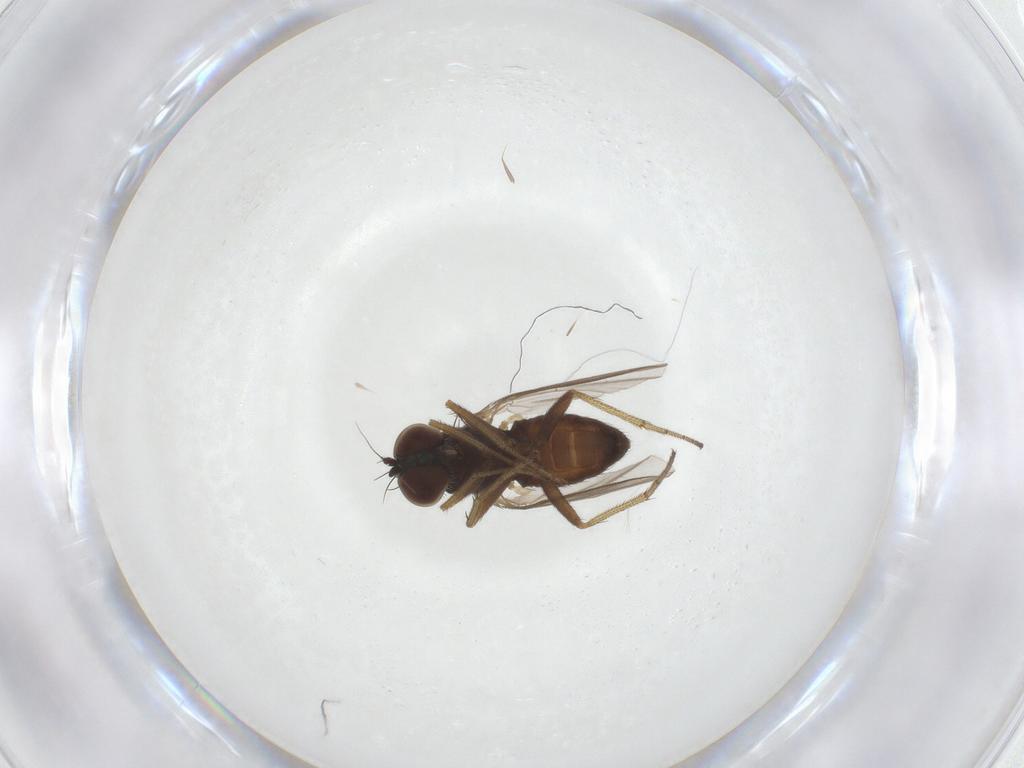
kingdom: Animalia
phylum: Arthropoda
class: Insecta
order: Diptera
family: Dolichopodidae
